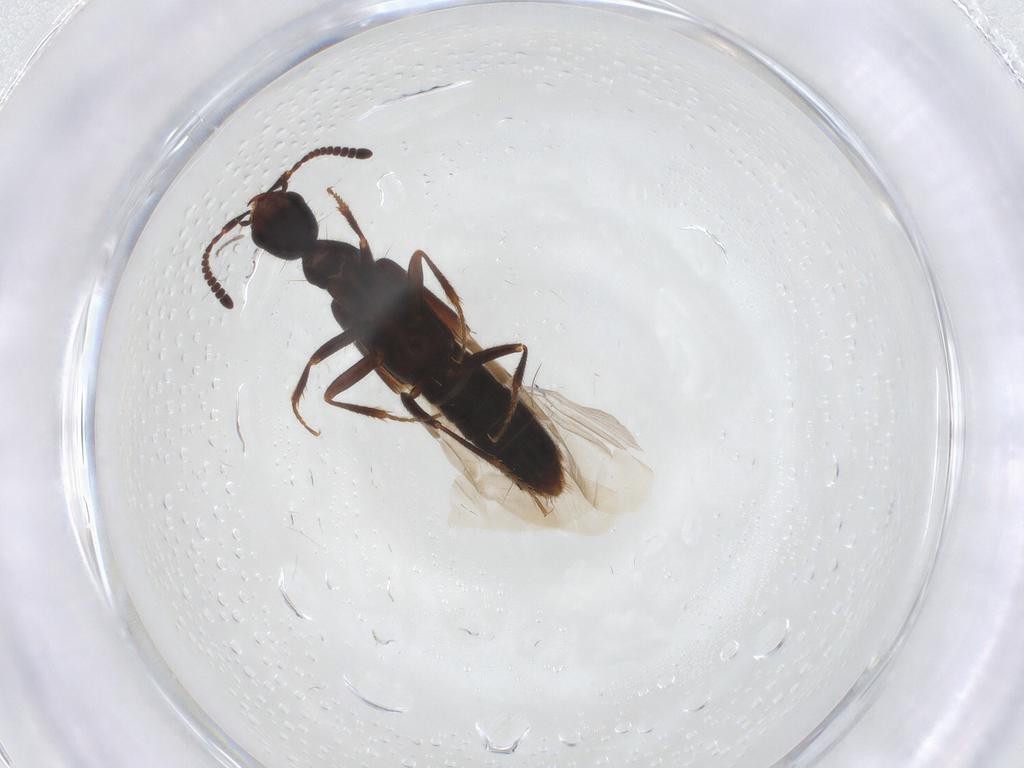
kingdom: Animalia
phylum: Arthropoda
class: Insecta
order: Coleoptera
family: Staphylinidae
